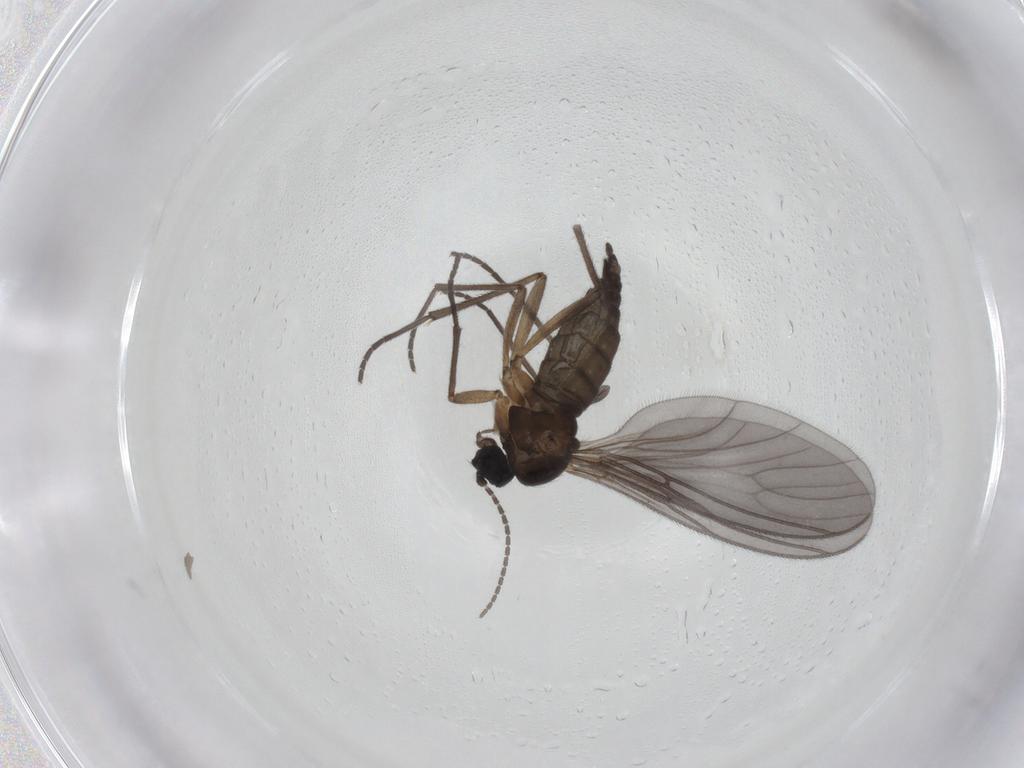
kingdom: Animalia
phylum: Arthropoda
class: Insecta
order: Diptera
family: Sciaridae
